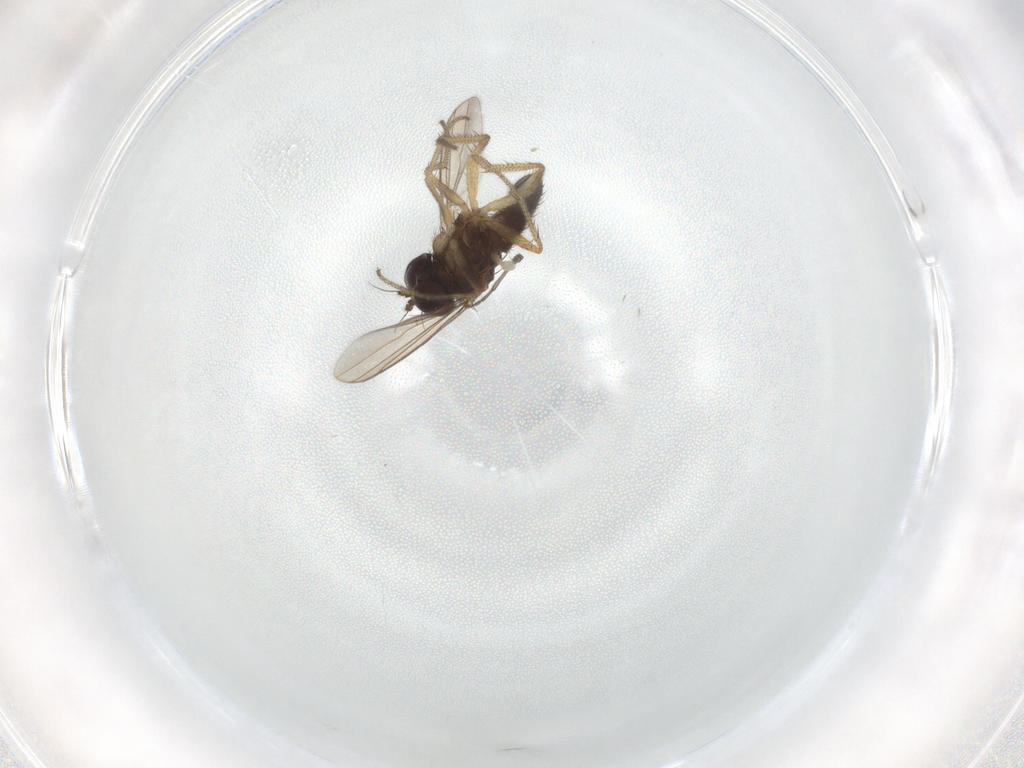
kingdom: Animalia
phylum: Arthropoda
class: Insecta
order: Diptera
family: Sciaridae
